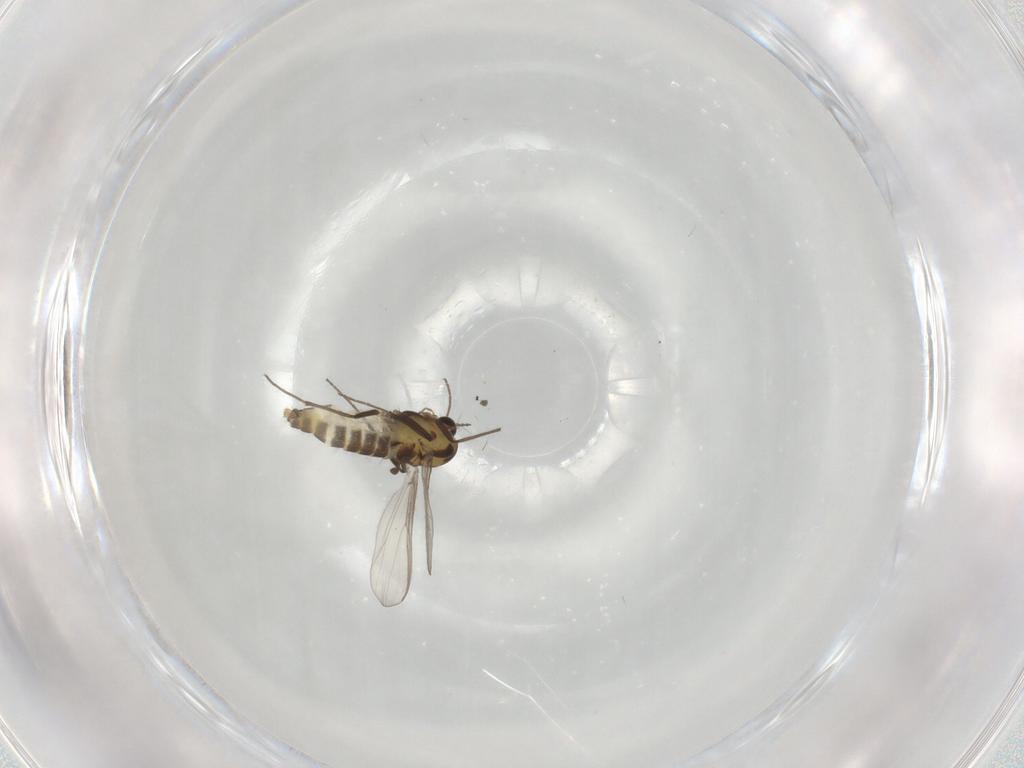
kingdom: Animalia
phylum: Arthropoda
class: Insecta
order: Diptera
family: Chironomidae
